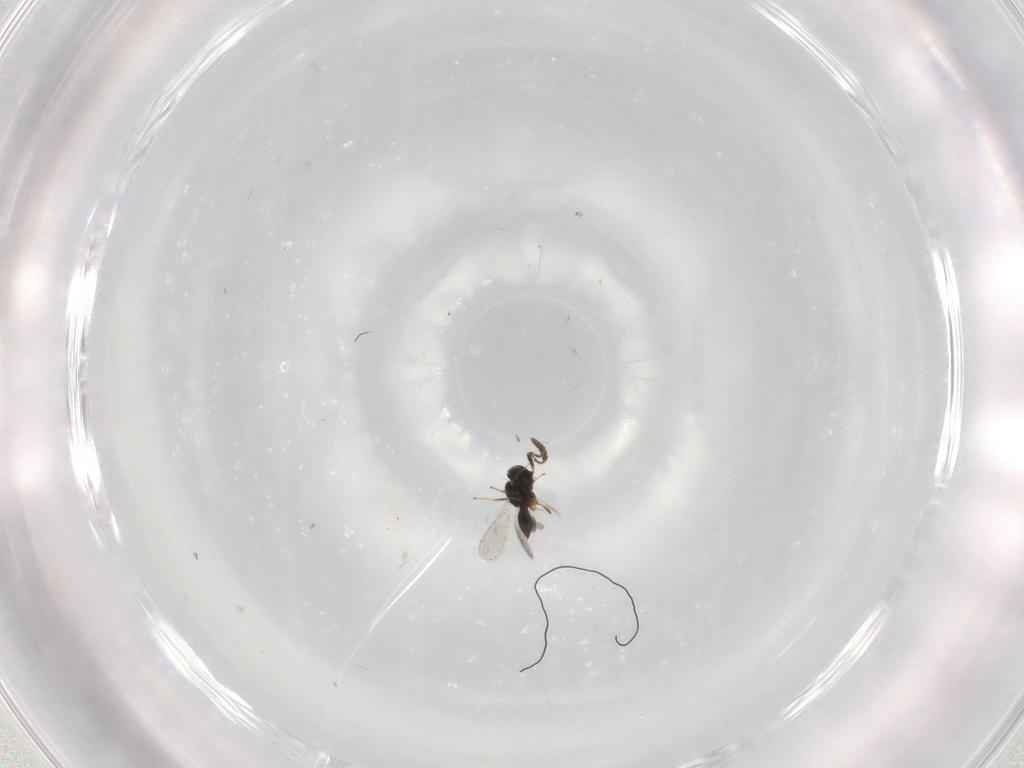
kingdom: Animalia
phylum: Arthropoda
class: Insecta
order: Hymenoptera
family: Scelionidae
